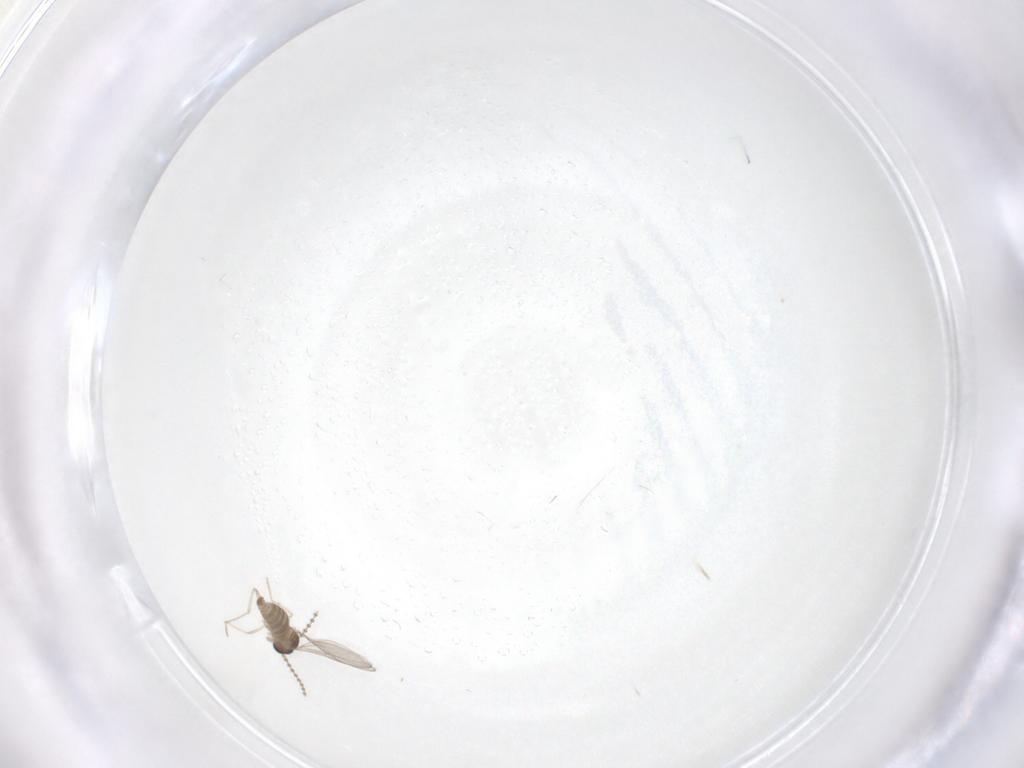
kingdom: Animalia
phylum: Arthropoda
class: Insecta
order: Diptera
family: Cecidomyiidae
